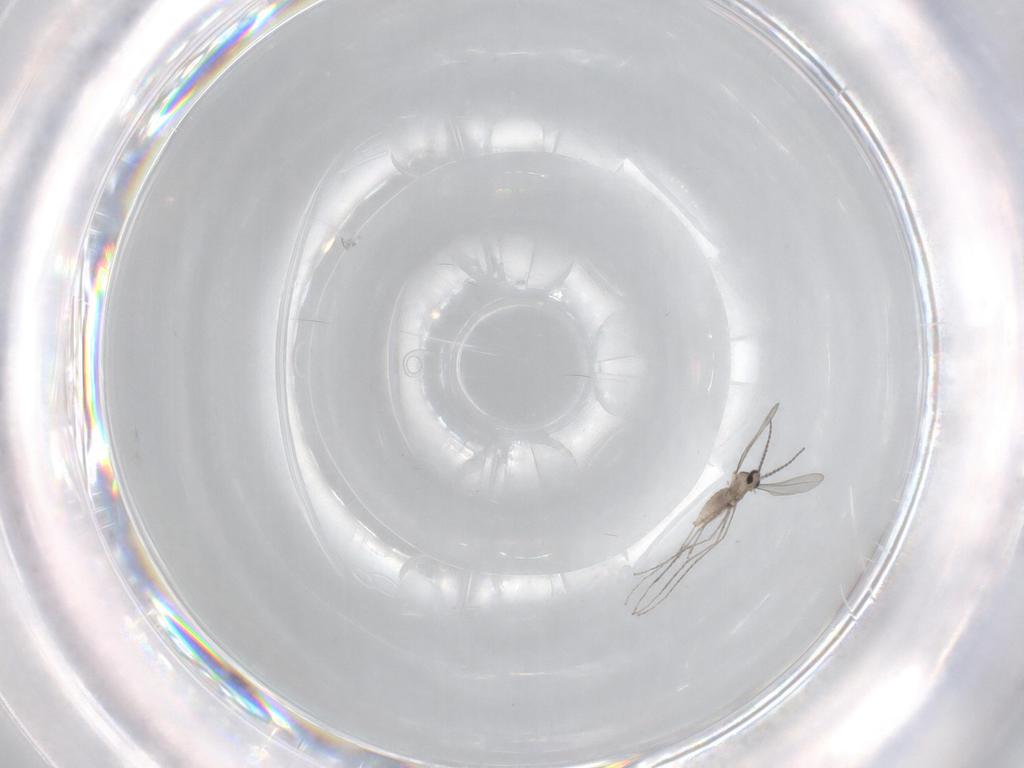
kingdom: Animalia
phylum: Arthropoda
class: Insecta
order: Diptera
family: Cecidomyiidae
